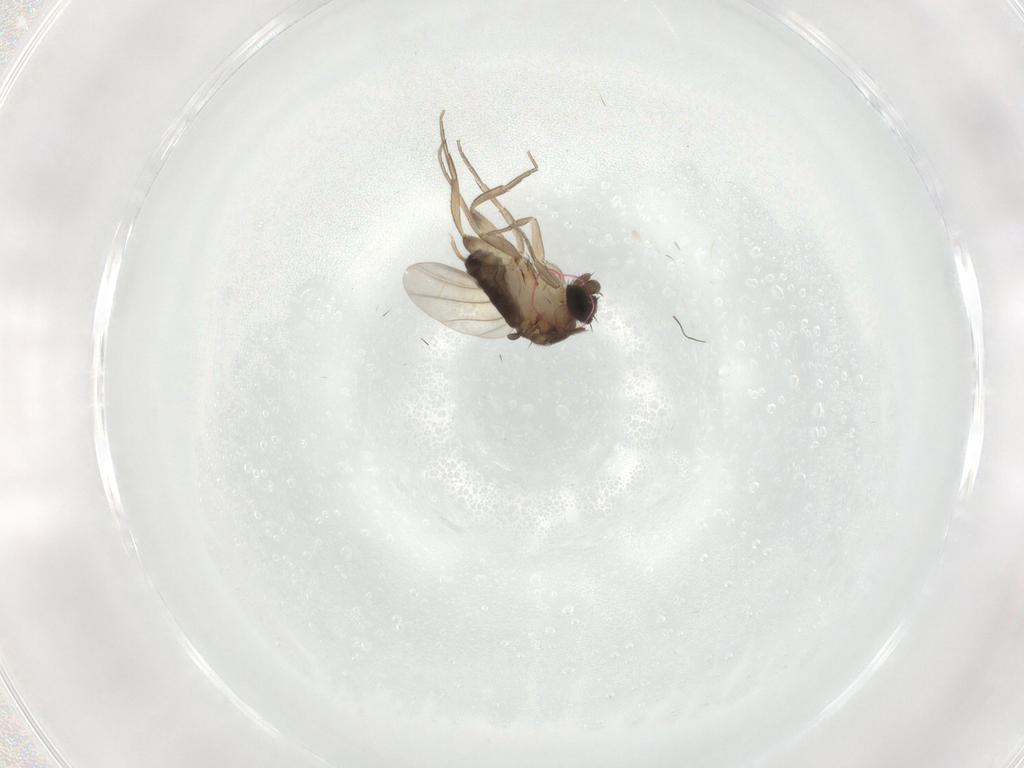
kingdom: Animalia
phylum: Arthropoda
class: Insecta
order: Diptera
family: Phoridae
